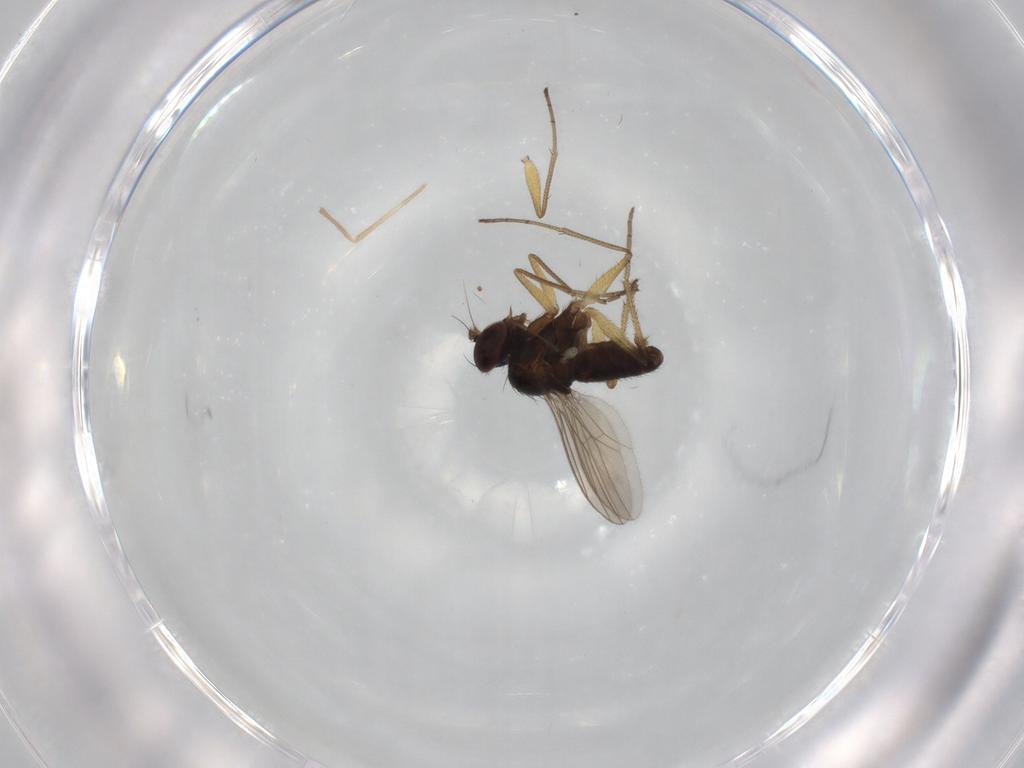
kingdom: Animalia
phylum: Arthropoda
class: Insecta
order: Diptera
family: Dolichopodidae
